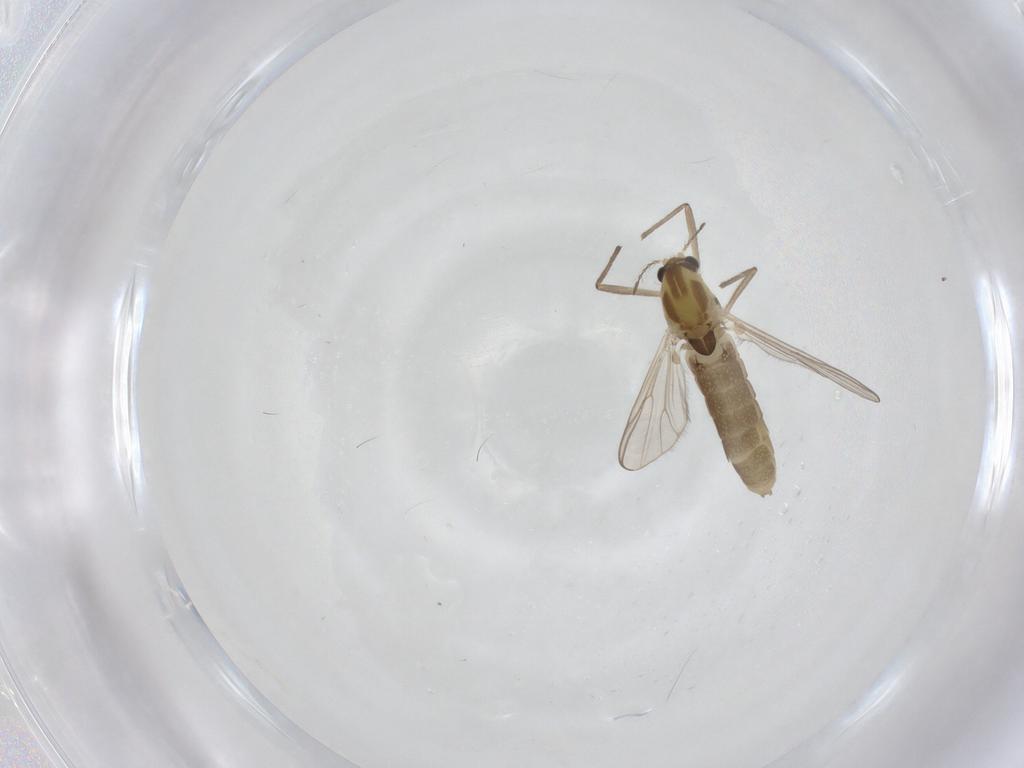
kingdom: Animalia
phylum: Arthropoda
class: Insecta
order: Diptera
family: Chironomidae
